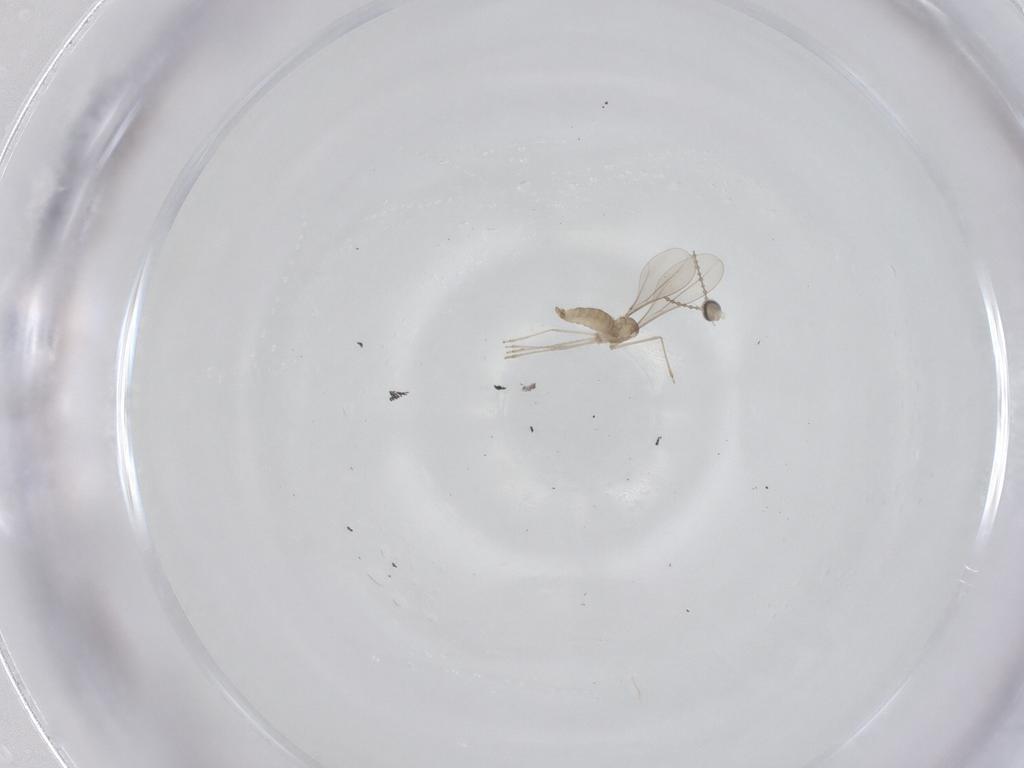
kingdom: Animalia
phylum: Arthropoda
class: Insecta
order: Diptera
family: Cecidomyiidae
